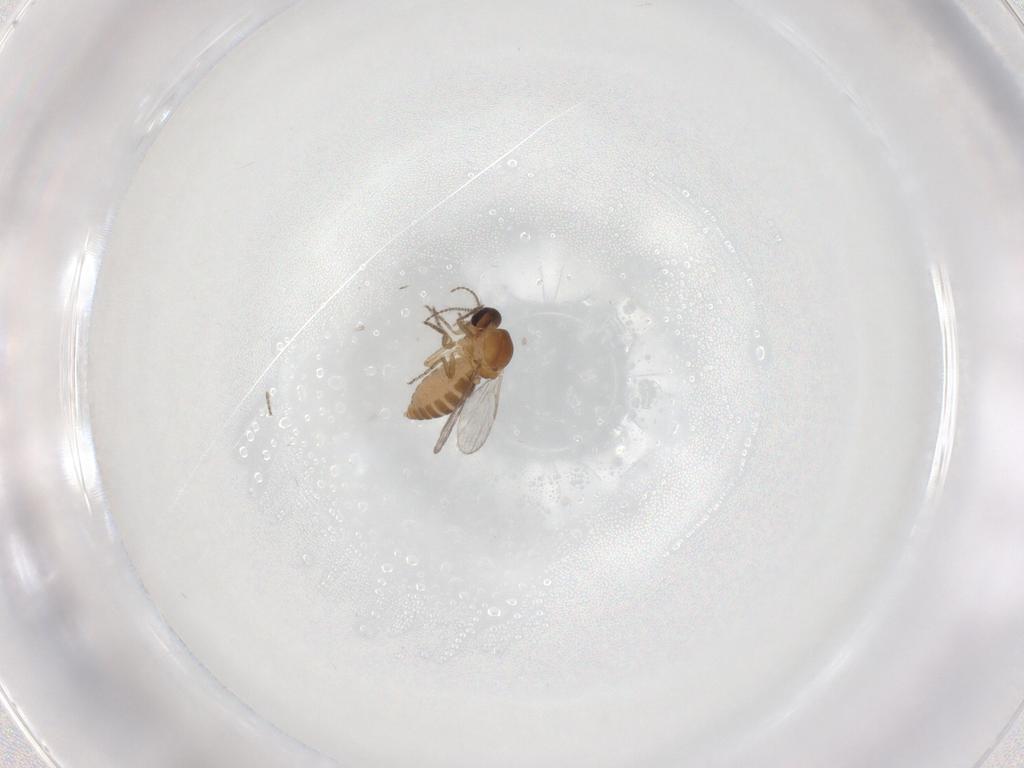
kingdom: Animalia
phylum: Arthropoda
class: Insecta
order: Diptera
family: Ceratopogonidae
